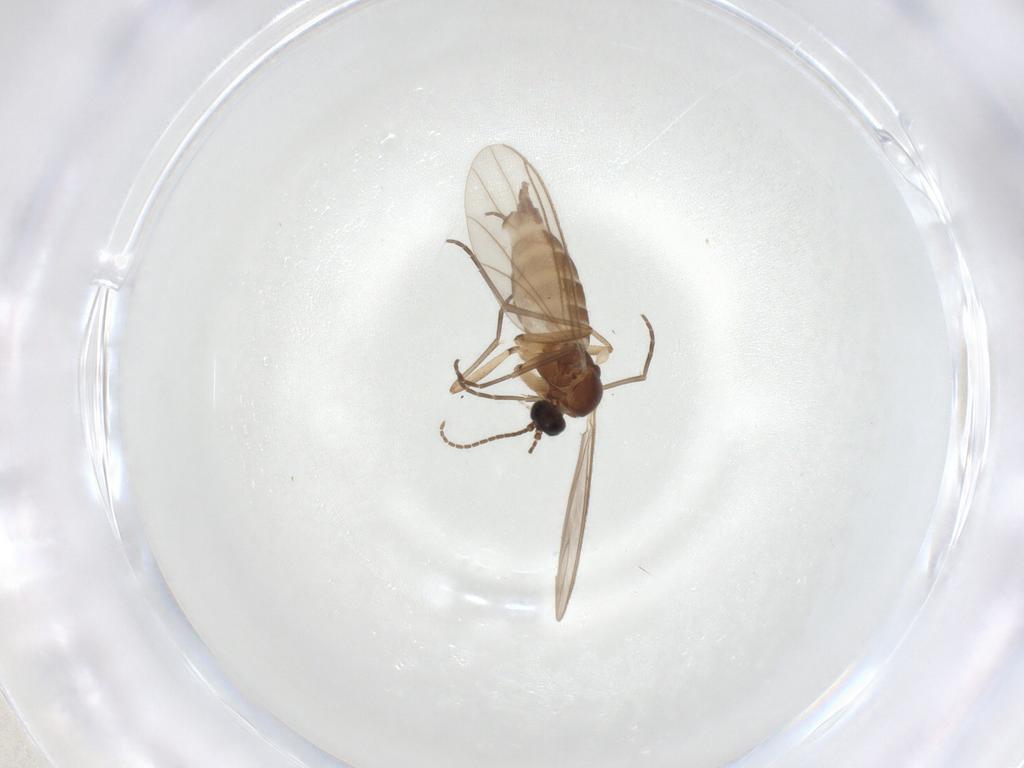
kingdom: Animalia
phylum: Arthropoda
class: Insecta
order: Diptera
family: Sciaridae
